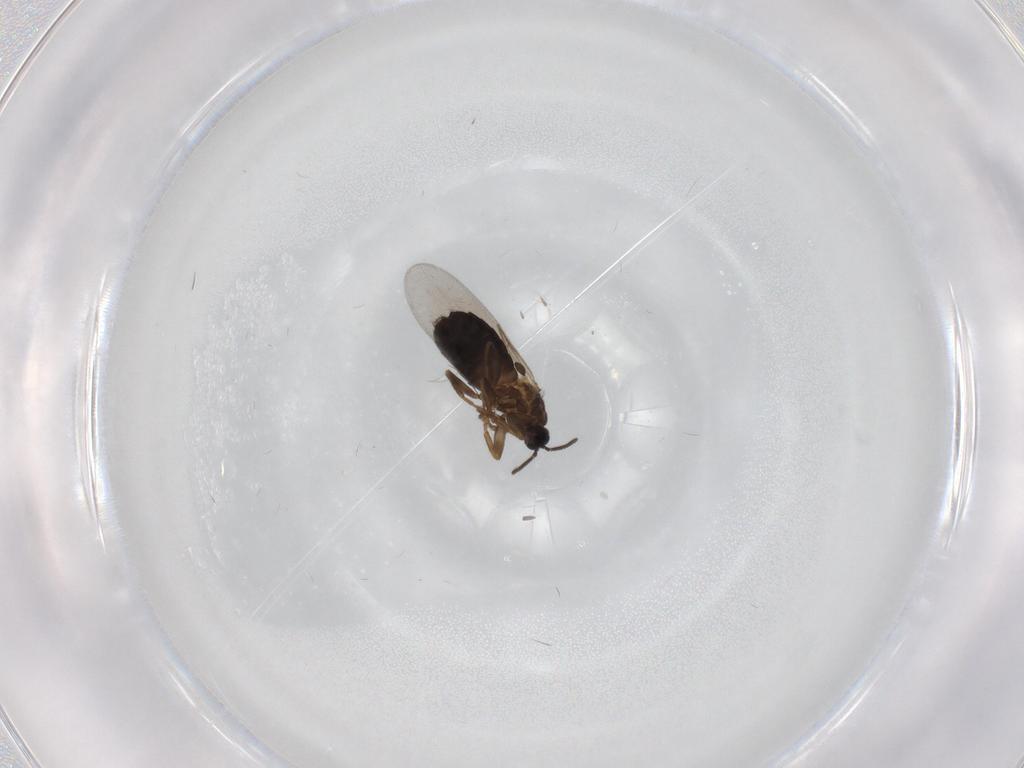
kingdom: Animalia
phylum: Arthropoda
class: Insecta
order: Diptera
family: Scatopsidae
